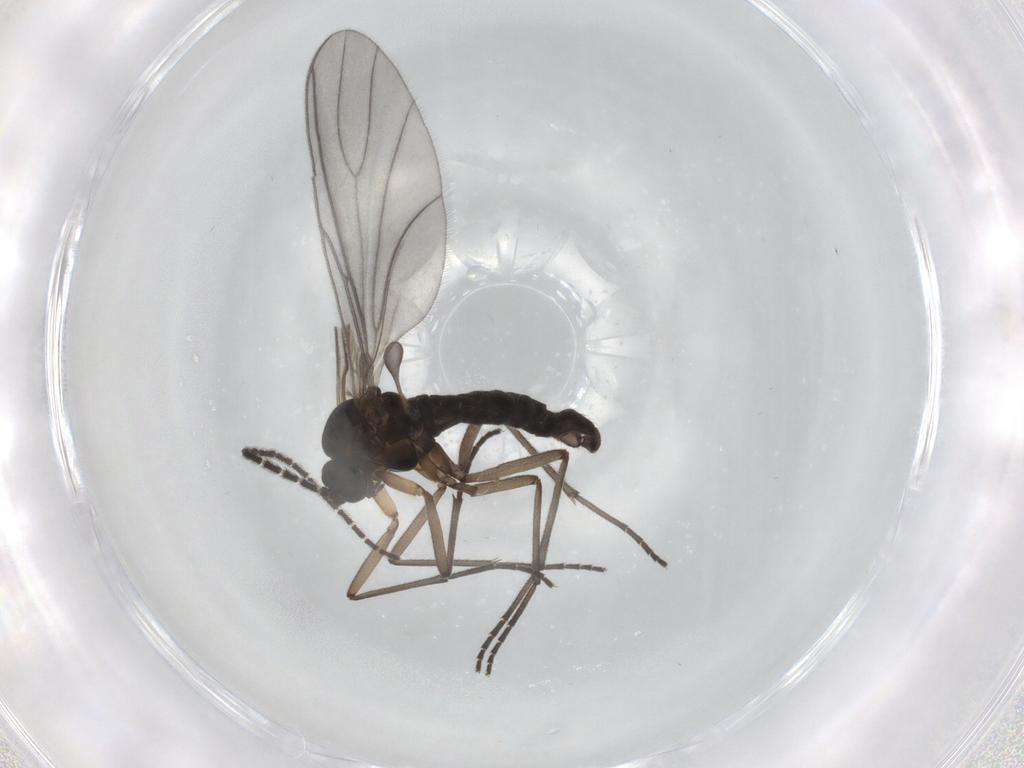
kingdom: Animalia
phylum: Arthropoda
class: Insecta
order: Diptera
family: Sciaridae
